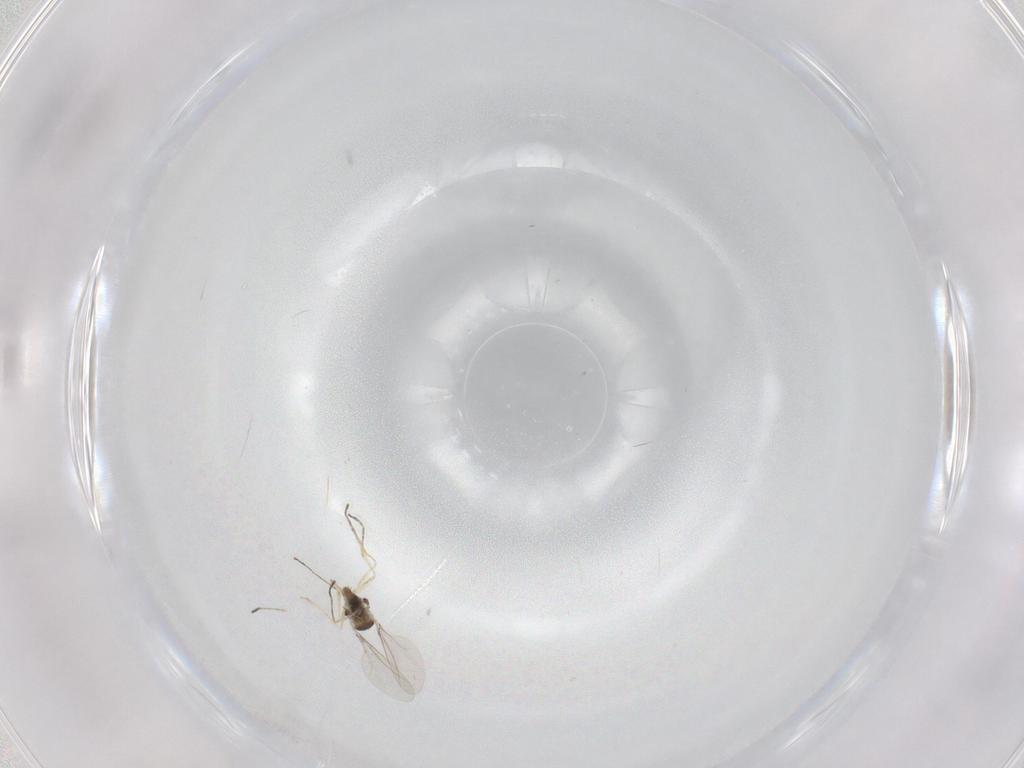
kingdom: Animalia
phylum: Arthropoda
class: Insecta
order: Diptera
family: Cecidomyiidae
